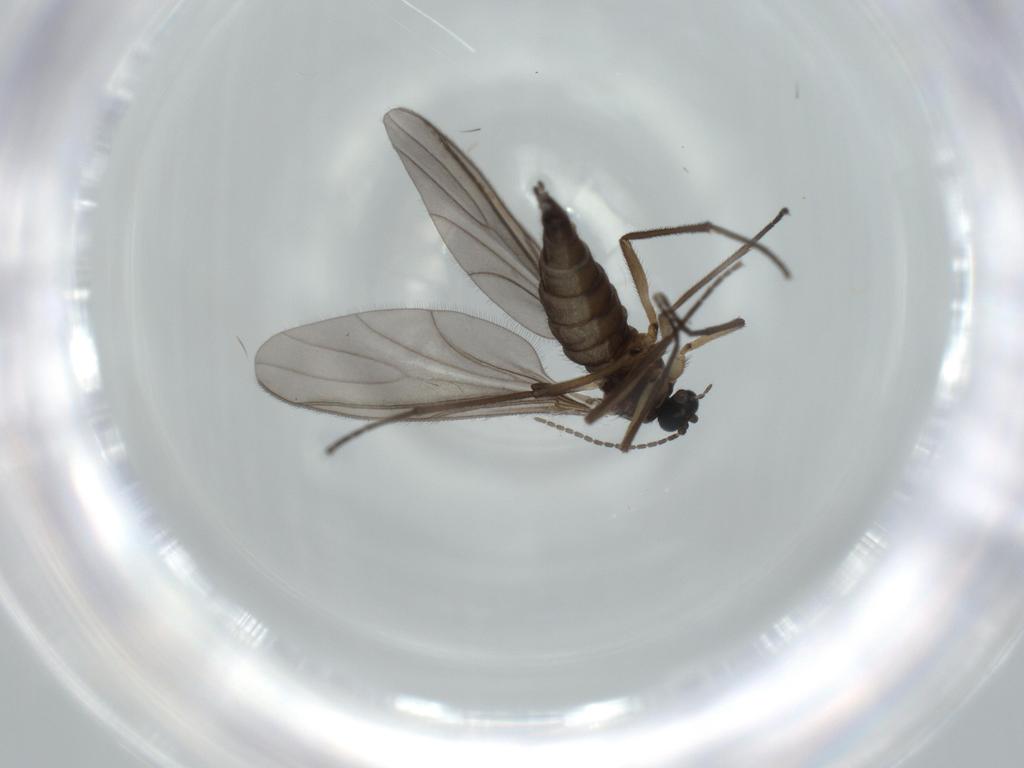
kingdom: Animalia
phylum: Arthropoda
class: Insecta
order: Diptera
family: Sciaridae
